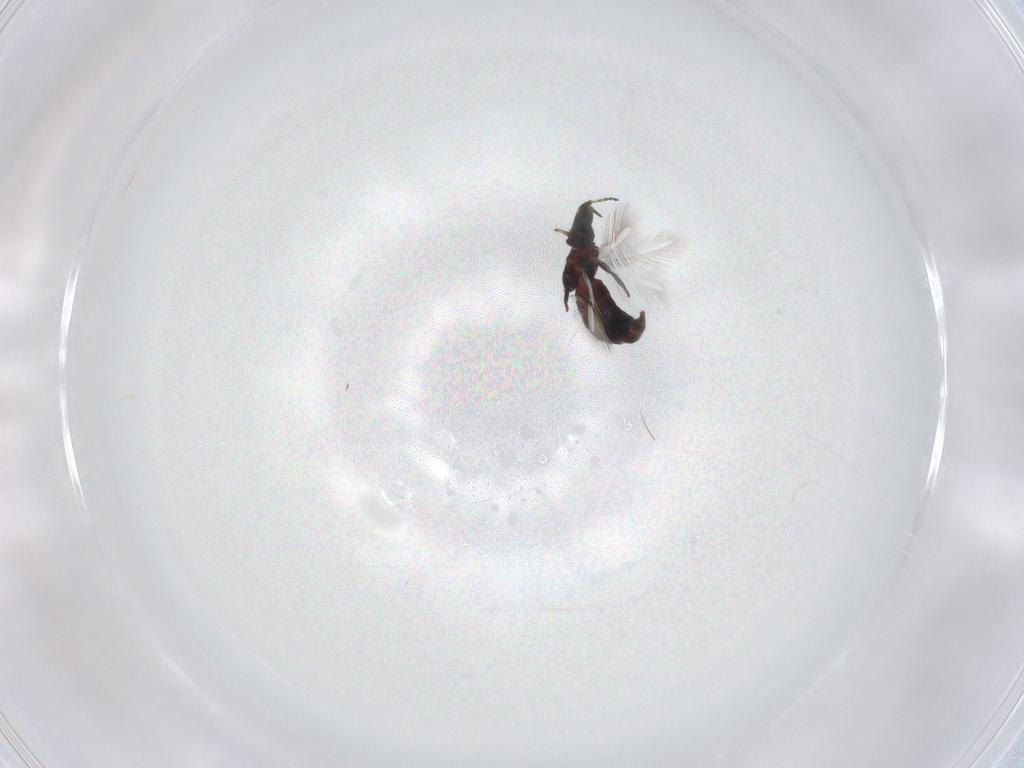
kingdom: Animalia
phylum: Arthropoda
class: Insecta
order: Thysanoptera
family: Phlaeothripidae
